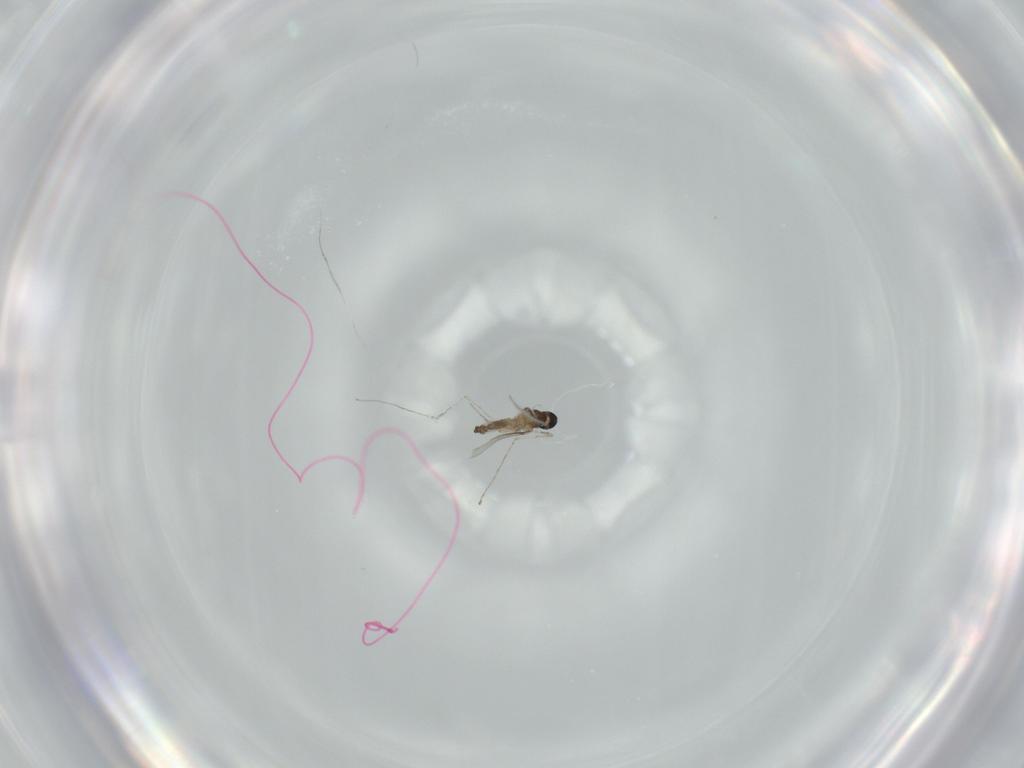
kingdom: Animalia
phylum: Arthropoda
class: Insecta
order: Diptera
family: Cecidomyiidae
